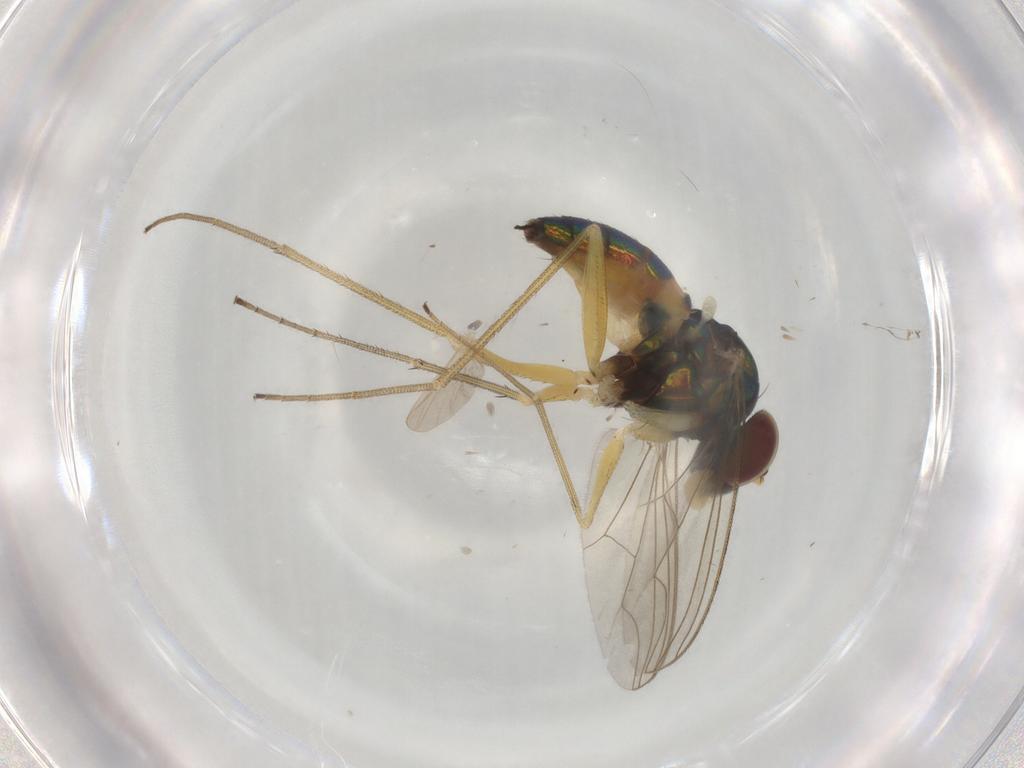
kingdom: Animalia
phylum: Arthropoda
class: Insecta
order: Diptera
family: Dolichopodidae
